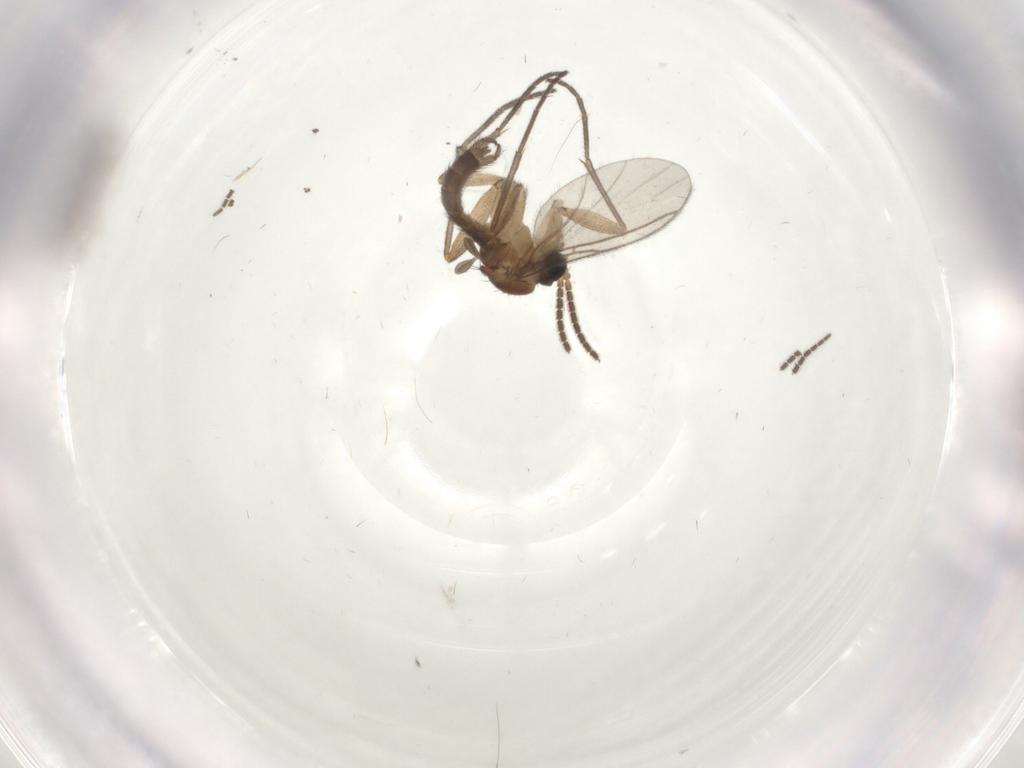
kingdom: Animalia
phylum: Arthropoda
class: Insecta
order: Diptera
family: Sciaridae
